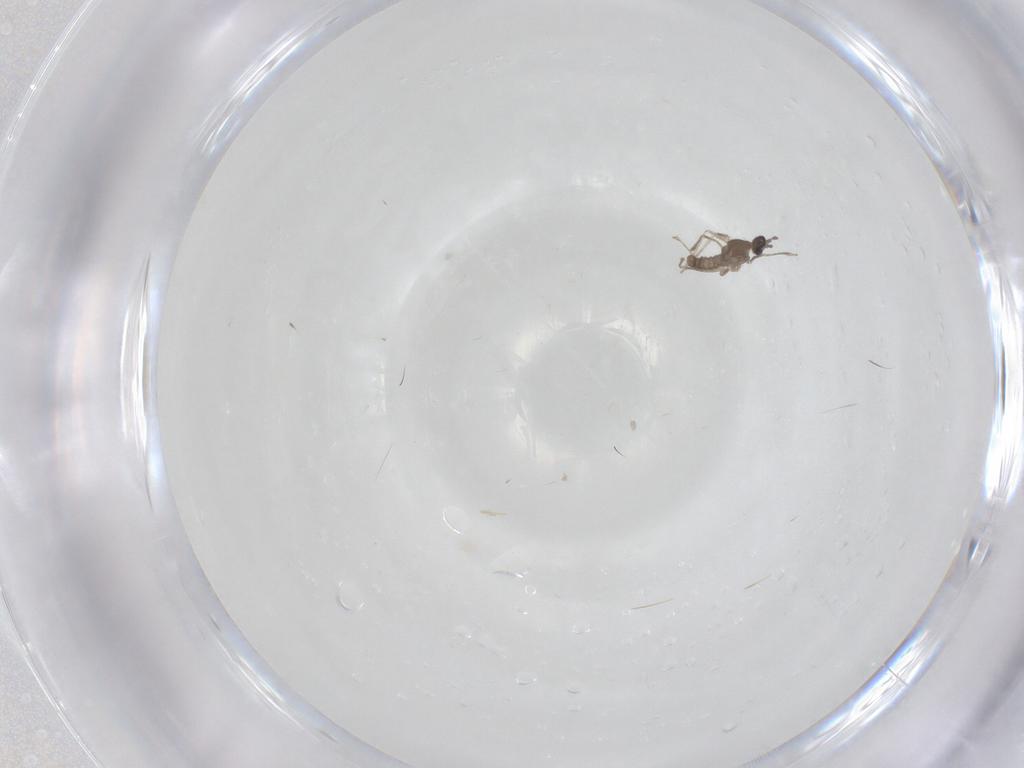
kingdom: Animalia
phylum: Arthropoda
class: Insecta
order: Diptera
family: Cecidomyiidae
